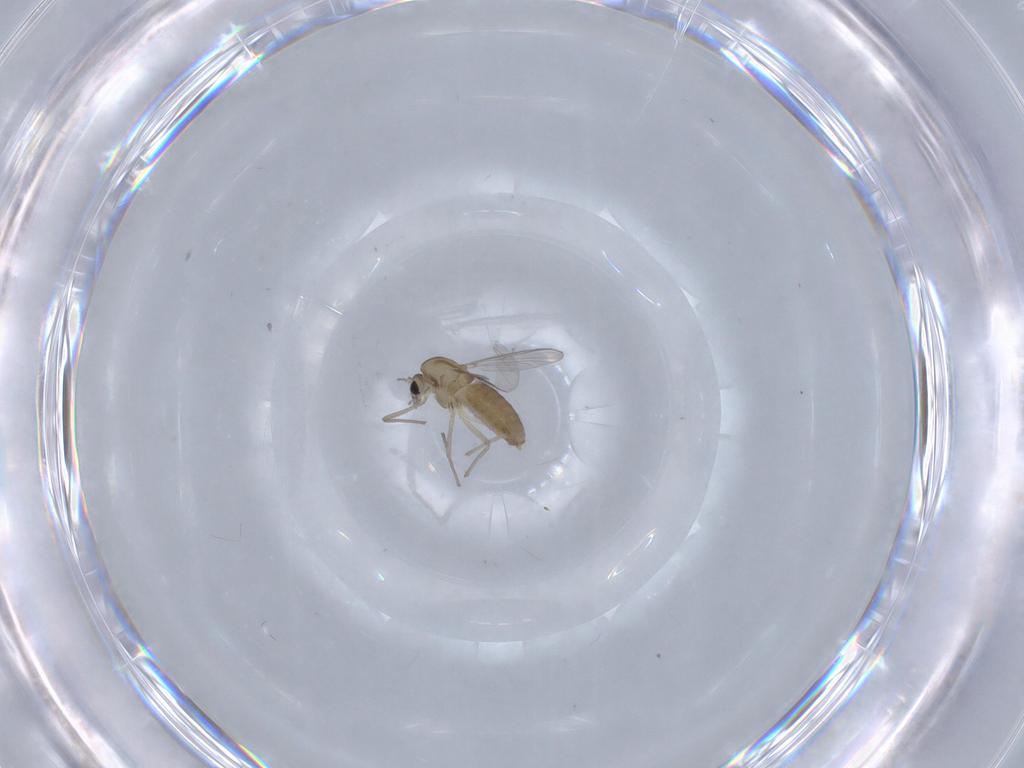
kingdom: Animalia
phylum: Arthropoda
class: Insecta
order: Diptera
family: Chironomidae
